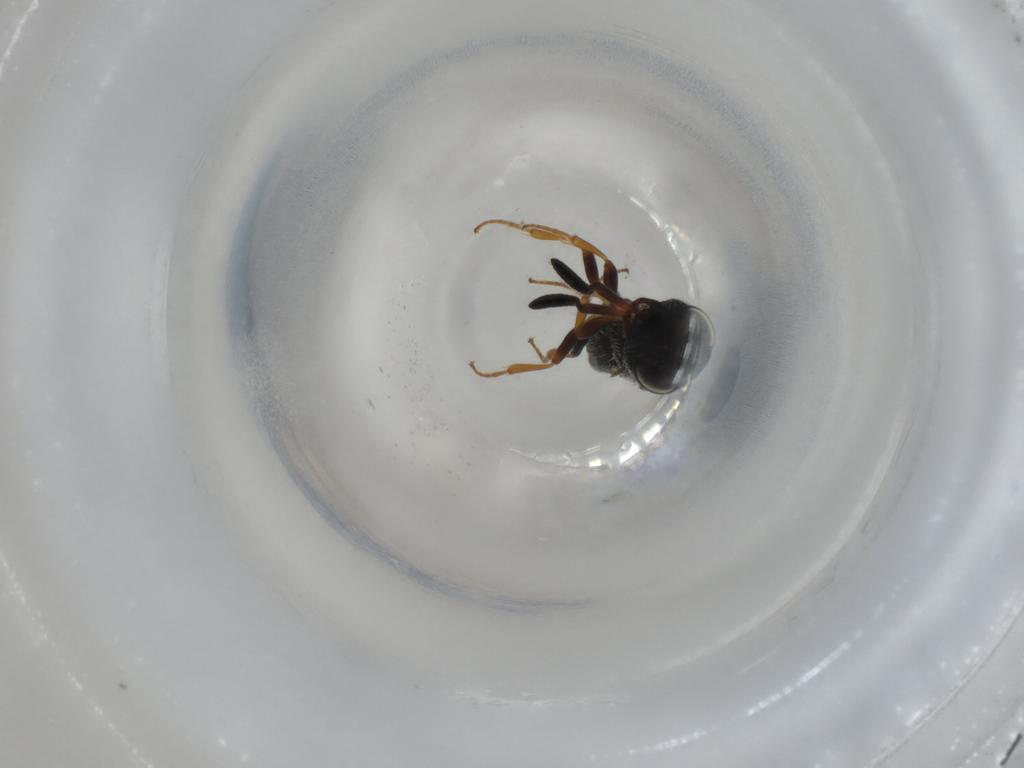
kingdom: Animalia
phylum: Arthropoda
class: Insecta
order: Hymenoptera
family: Scelionidae
